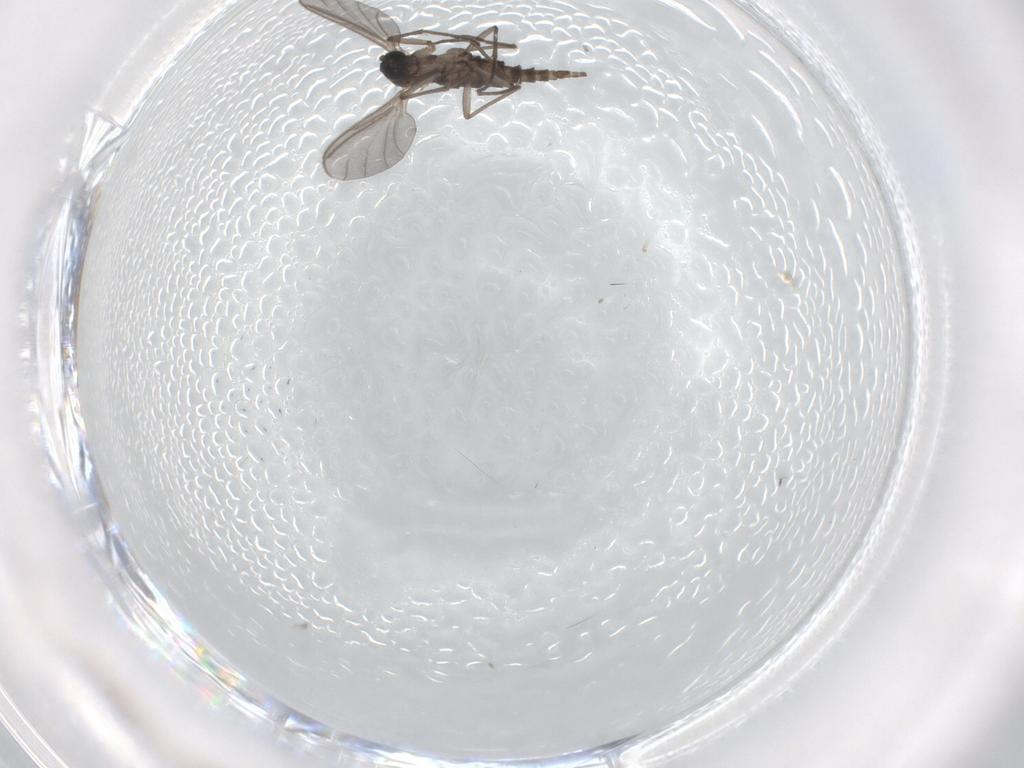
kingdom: Animalia
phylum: Arthropoda
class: Insecta
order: Diptera
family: Sciaridae
